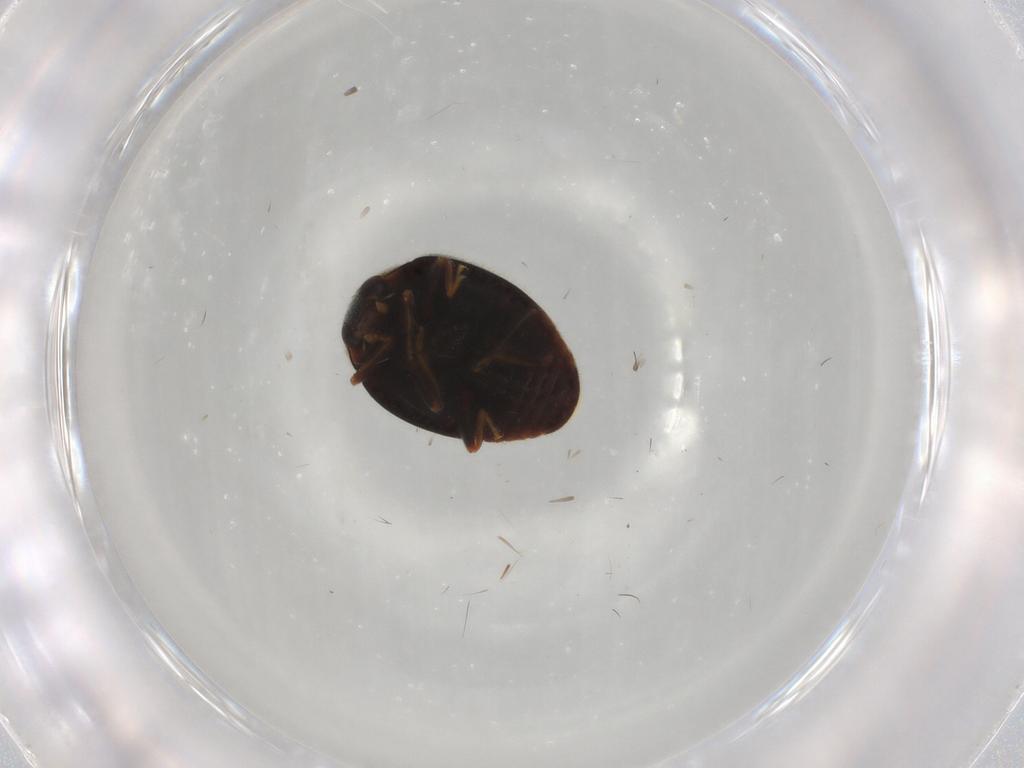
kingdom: Animalia
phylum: Arthropoda
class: Insecta
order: Coleoptera
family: Coccinellidae
